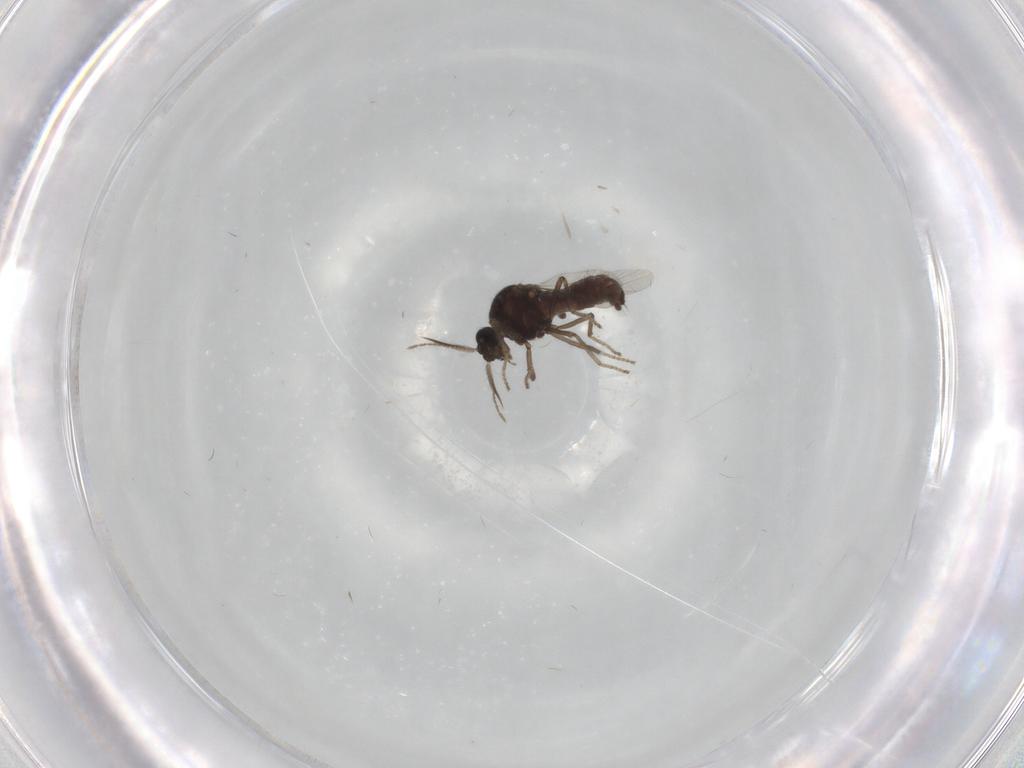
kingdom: Animalia
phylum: Arthropoda
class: Insecta
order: Diptera
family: Ceratopogonidae
